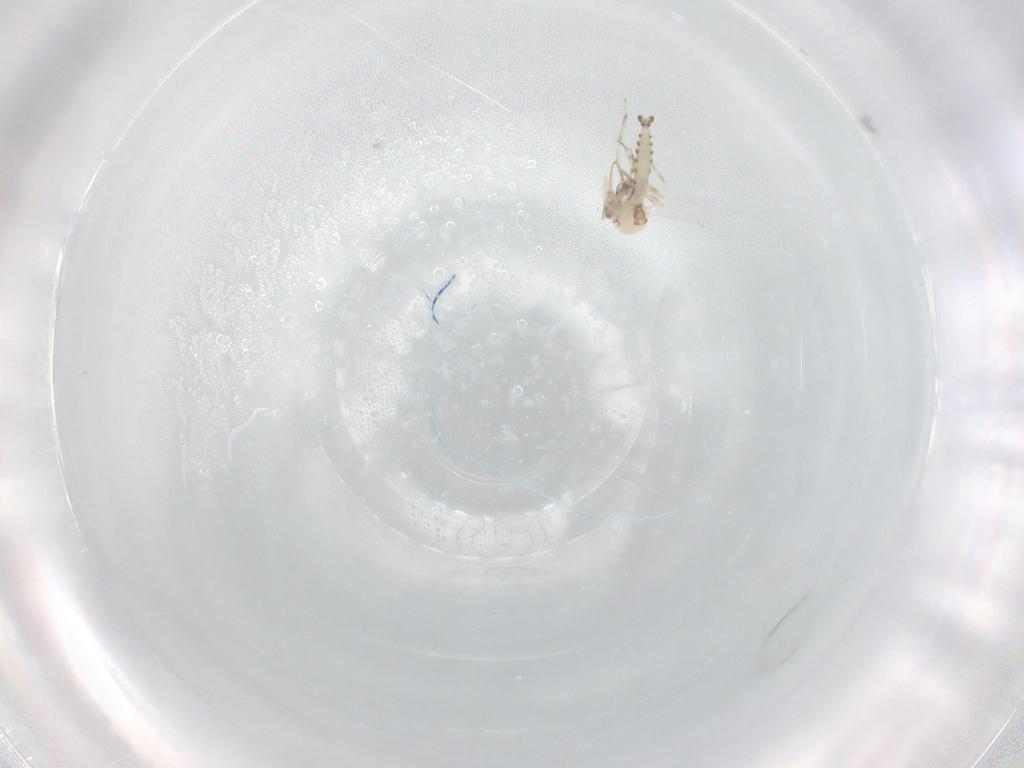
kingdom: Animalia
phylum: Arthropoda
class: Insecta
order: Diptera
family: Ceratopogonidae
